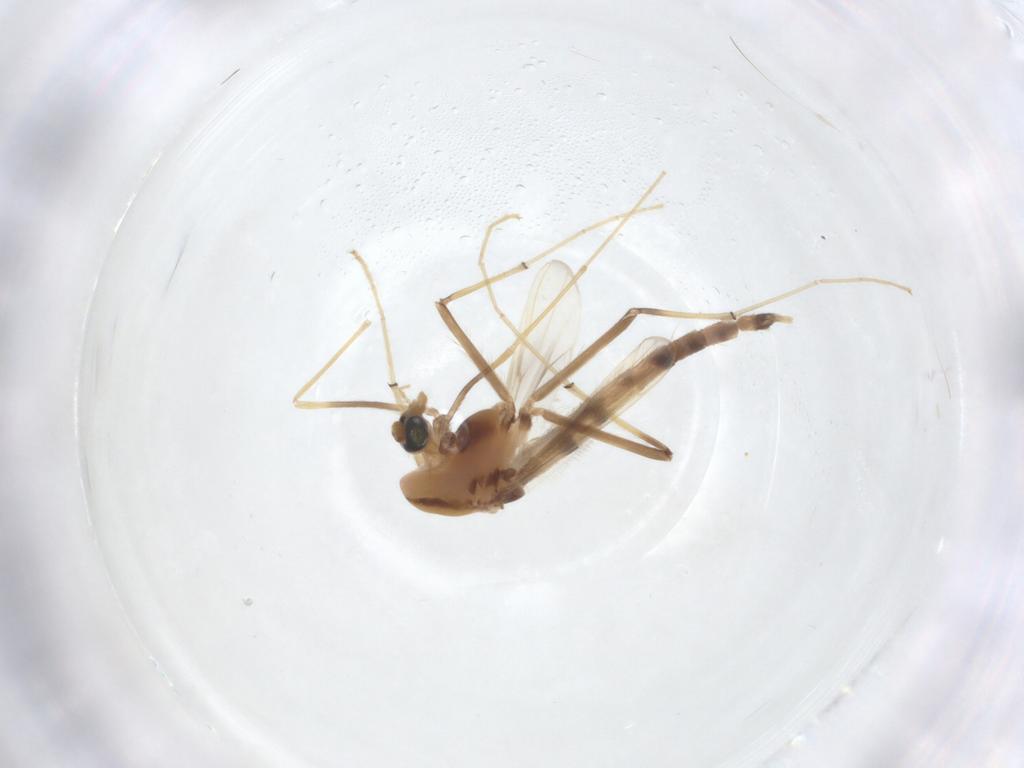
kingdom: Animalia
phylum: Arthropoda
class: Insecta
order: Diptera
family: Chironomidae
